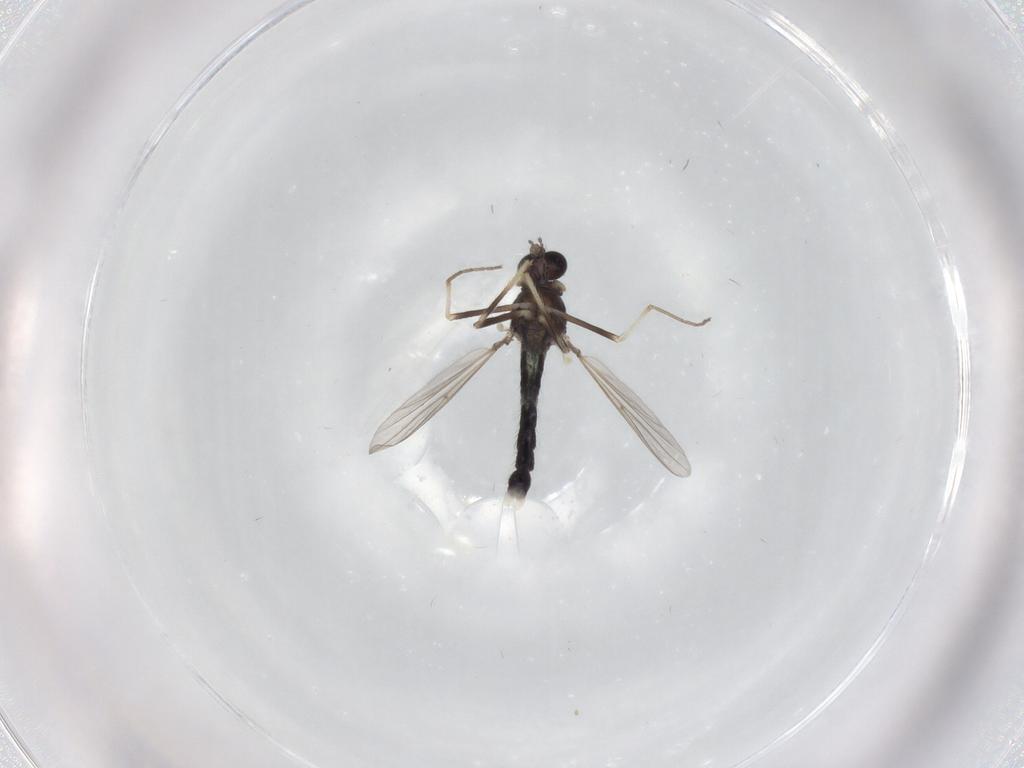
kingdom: Animalia
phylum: Arthropoda
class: Insecta
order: Diptera
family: Chironomidae
